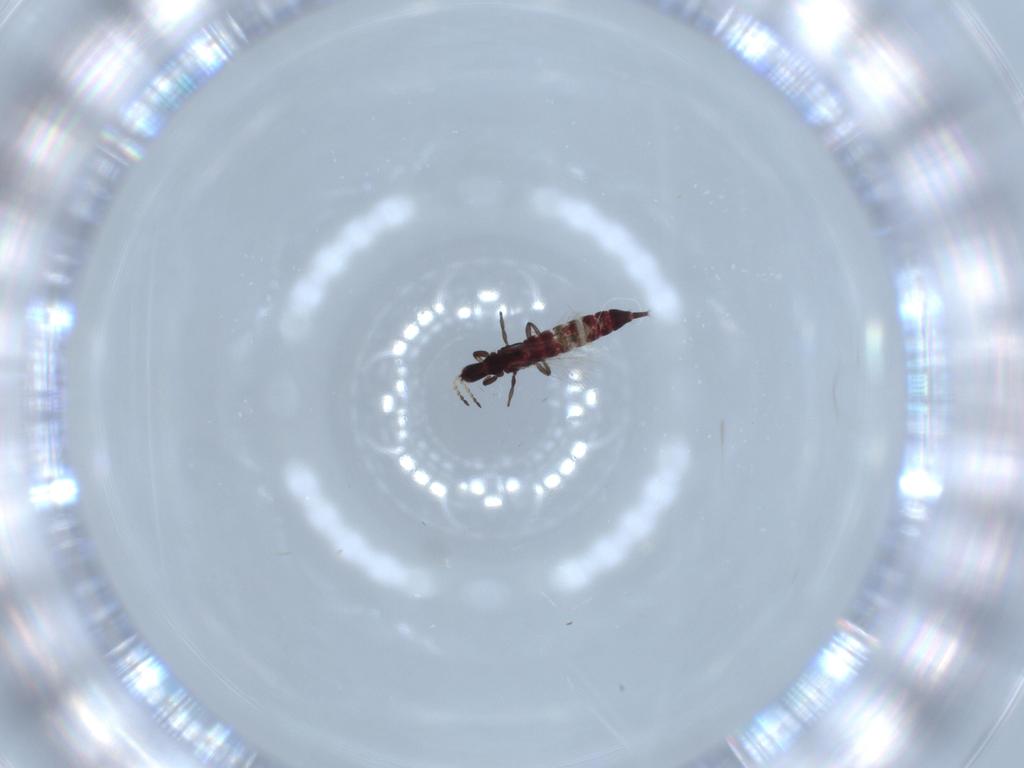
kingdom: Animalia
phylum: Arthropoda
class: Insecta
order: Thysanoptera
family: Phlaeothripidae
